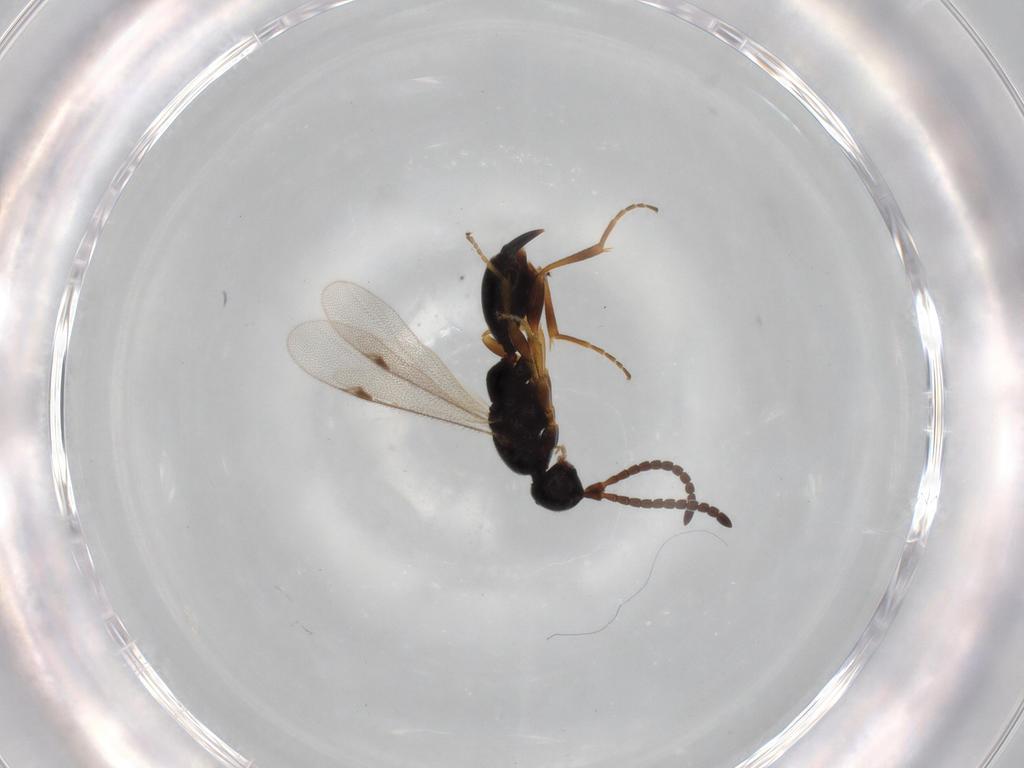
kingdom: Animalia
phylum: Arthropoda
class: Insecta
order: Hymenoptera
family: Proctotrupidae
